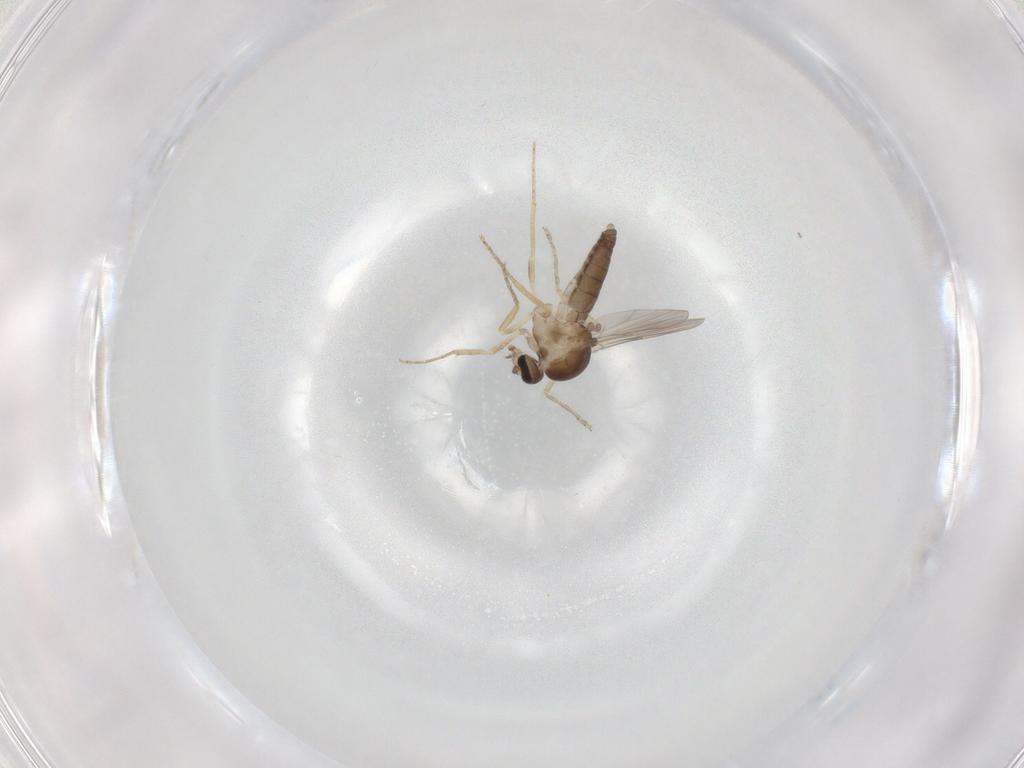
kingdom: Animalia
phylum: Arthropoda
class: Insecta
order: Diptera
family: Ceratopogonidae
